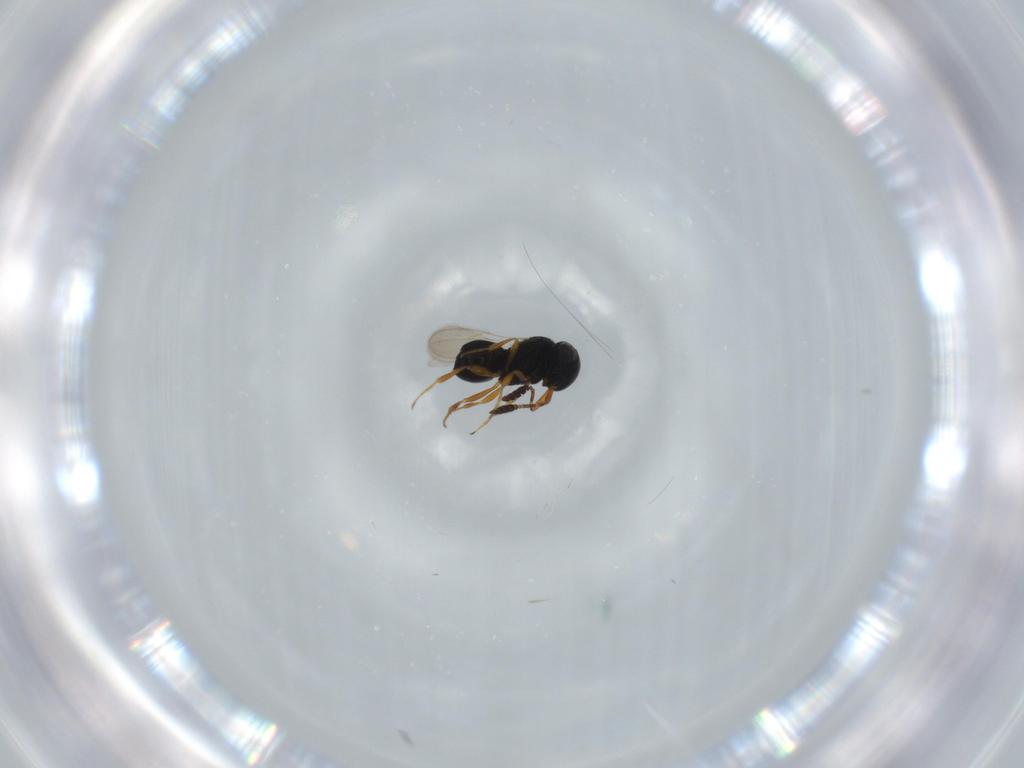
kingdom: Animalia
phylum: Arthropoda
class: Insecta
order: Hymenoptera
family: Scelionidae
